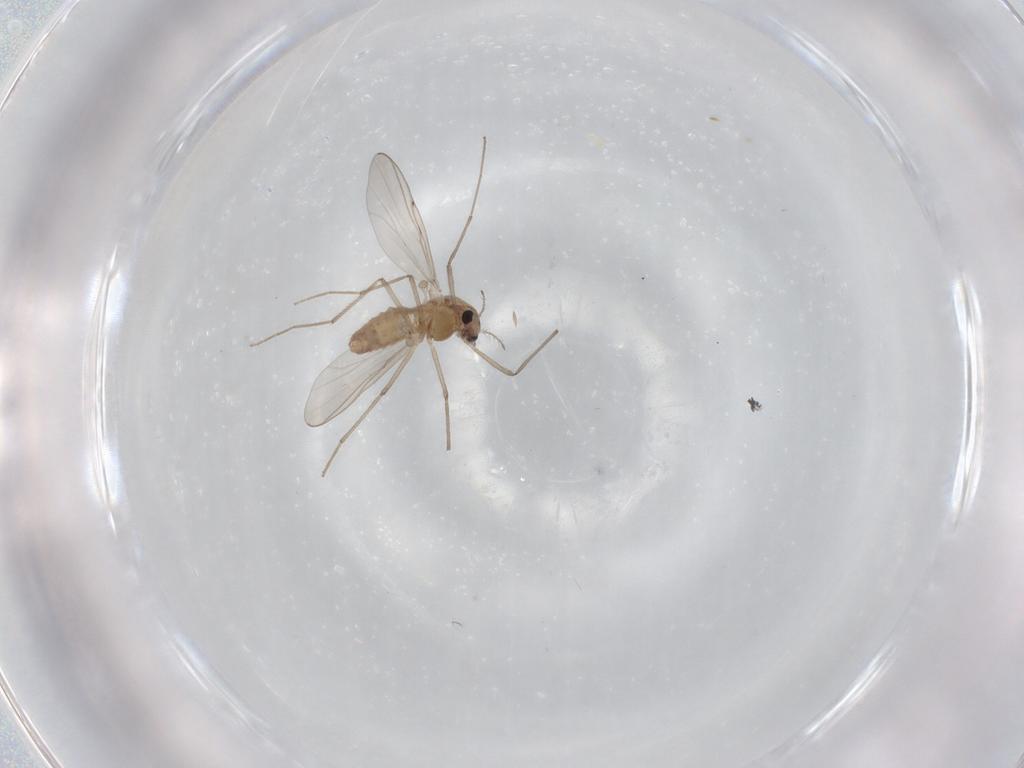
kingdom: Animalia
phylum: Arthropoda
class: Insecta
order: Diptera
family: Chironomidae
